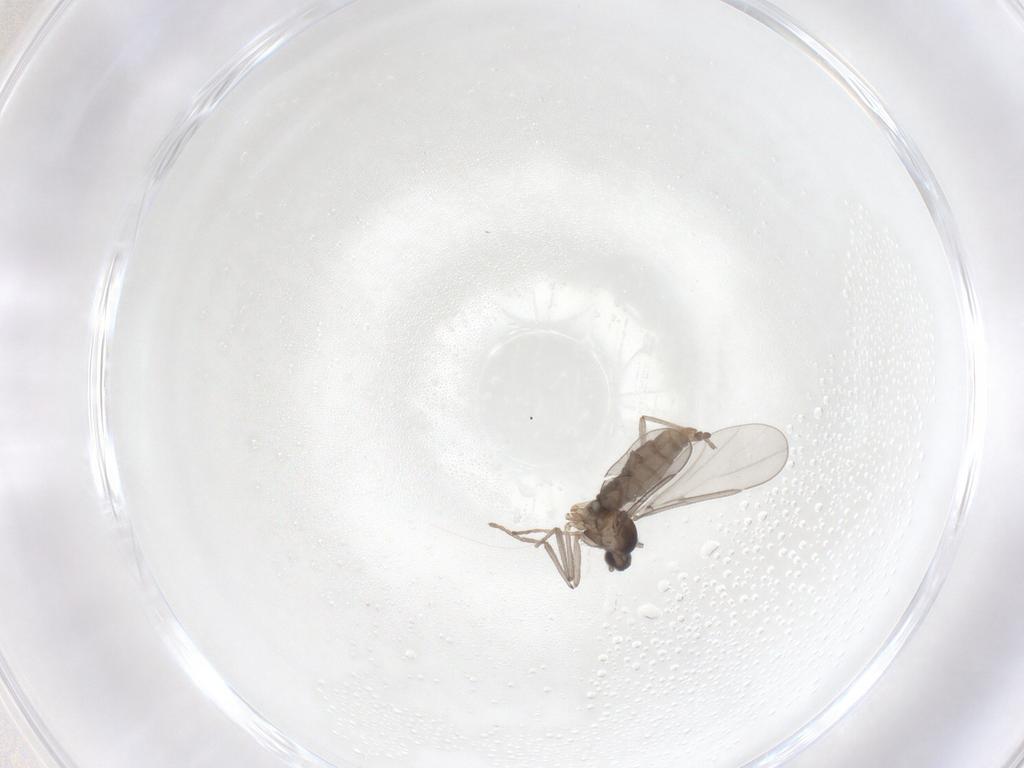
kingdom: Animalia
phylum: Arthropoda
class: Insecta
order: Diptera
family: Cecidomyiidae
